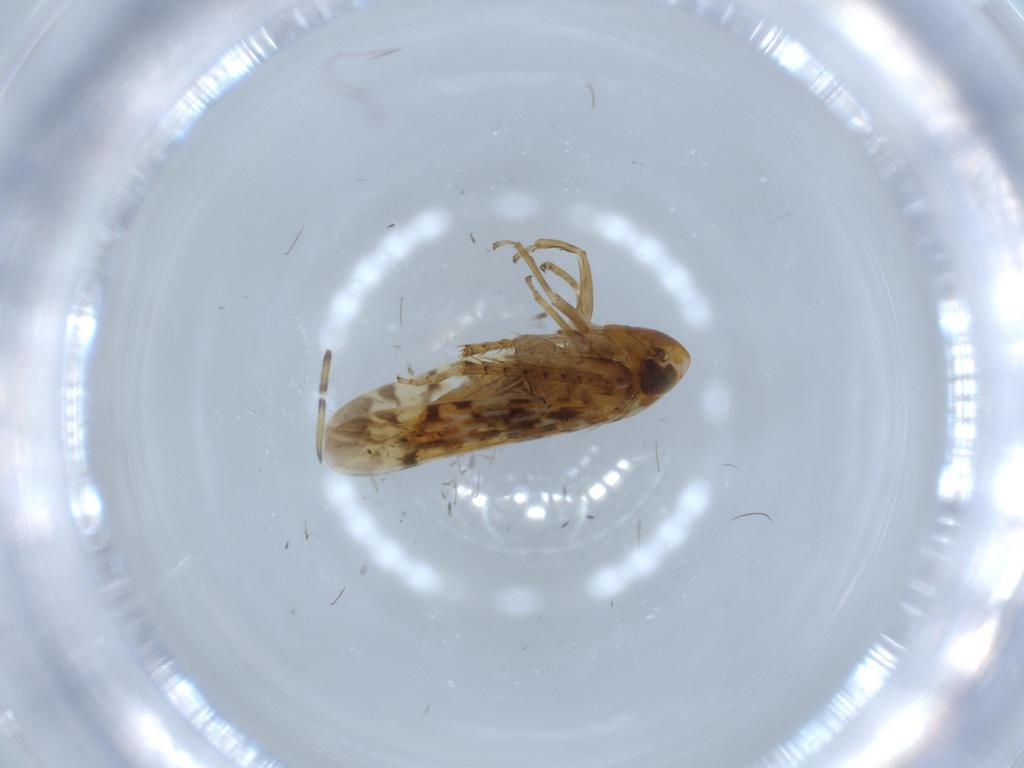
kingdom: Animalia
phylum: Arthropoda
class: Insecta
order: Hemiptera
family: Cicadellidae
